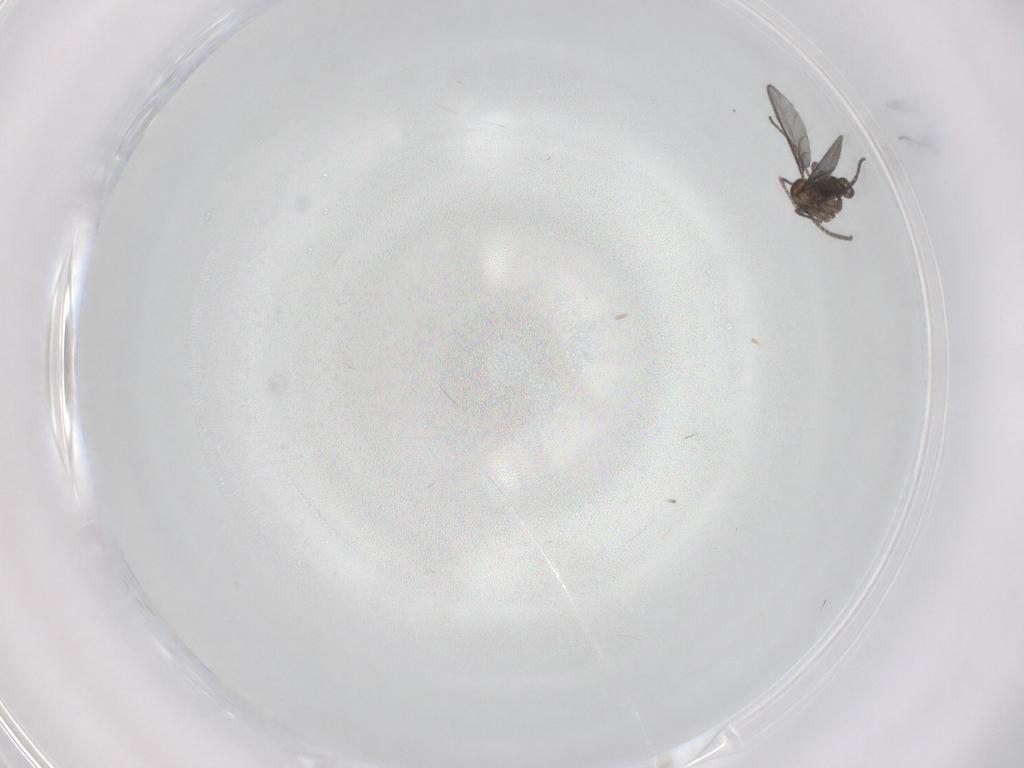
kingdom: Animalia
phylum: Arthropoda
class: Insecta
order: Diptera
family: Sciaridae
